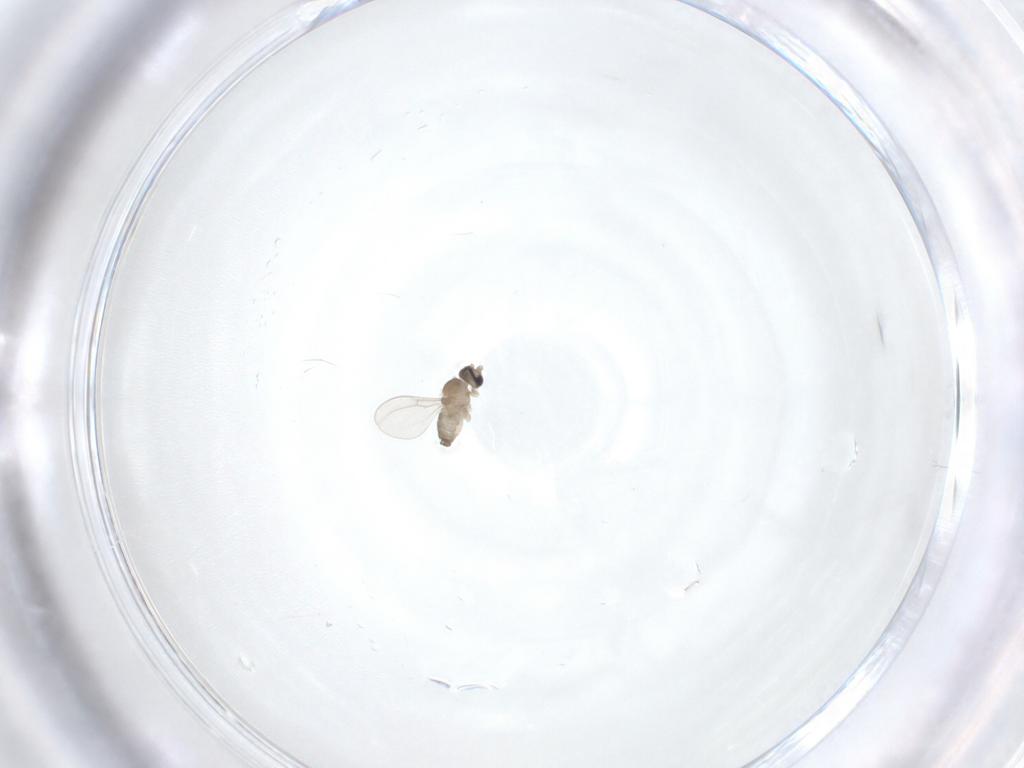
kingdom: Animalia
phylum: Arthropoda
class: Insecta
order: Diptera
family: Cecidomyiidae
